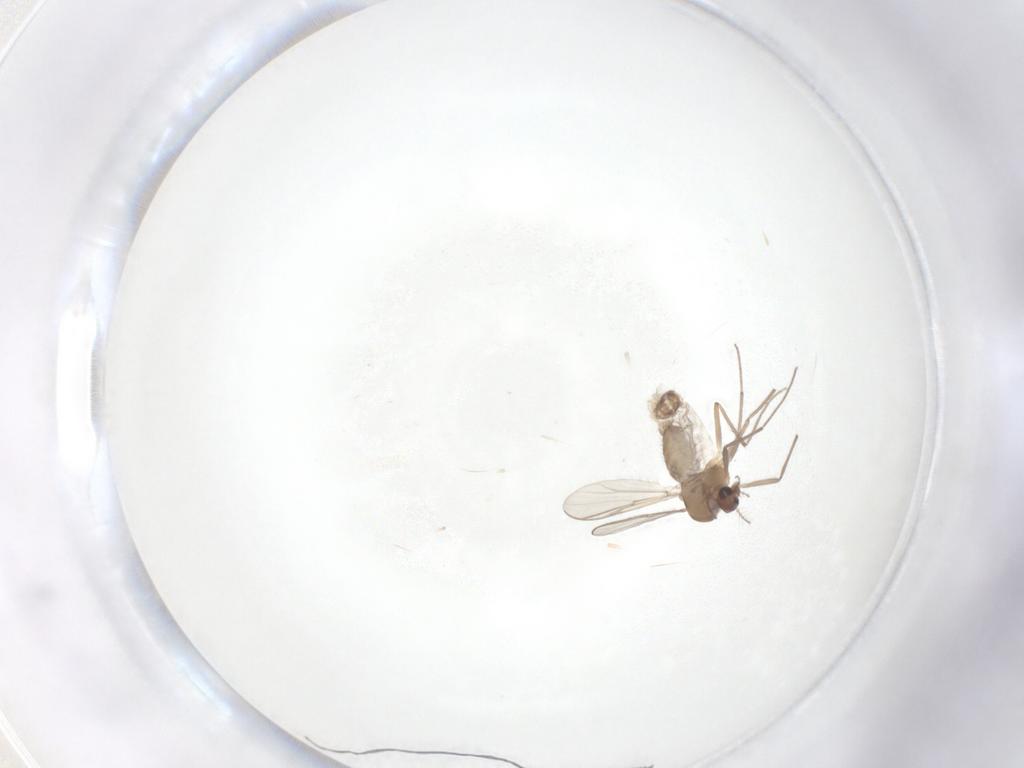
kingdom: Animalia
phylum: Arthropoda
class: Insecta
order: Diptera
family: Chironomidae
